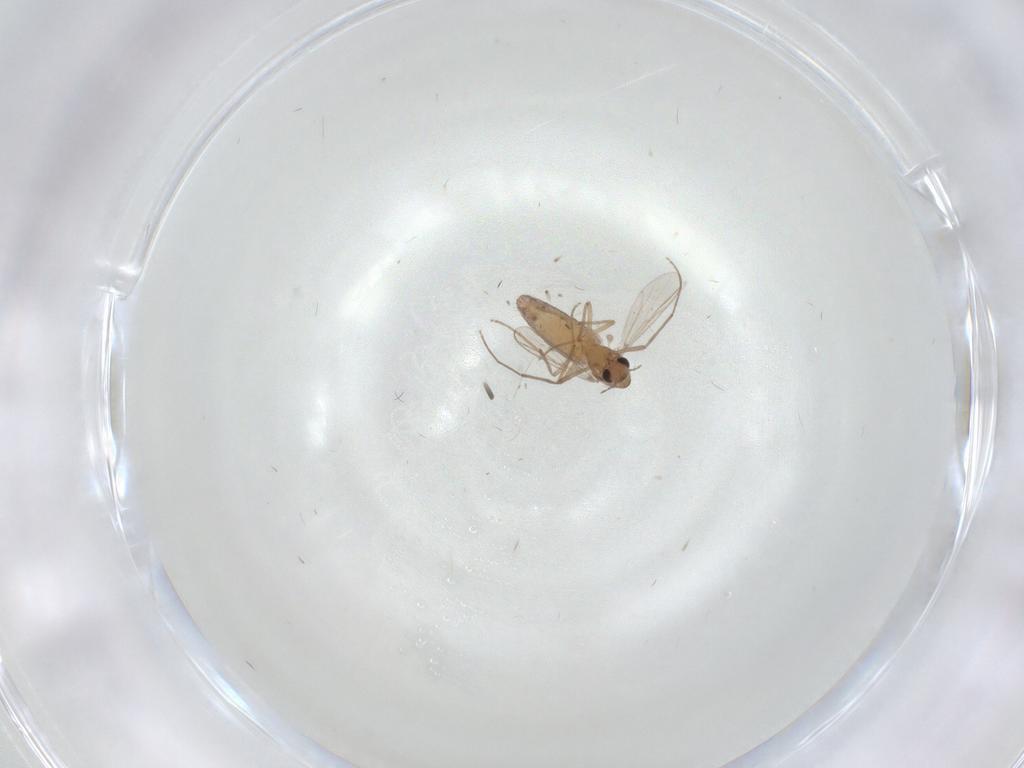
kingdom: Animalia
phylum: Arthropoda
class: Insecta
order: Diptera
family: Chironomidae
